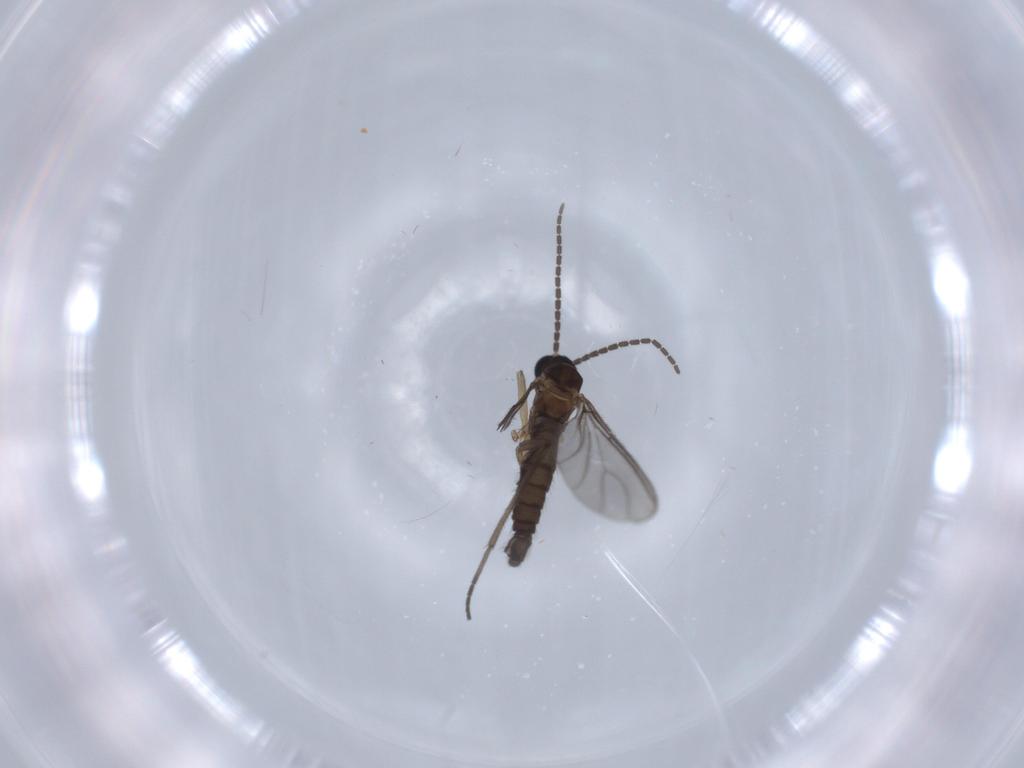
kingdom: Animalia
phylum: Arthropoda
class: Insecta
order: Diptera
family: Sciaridae
